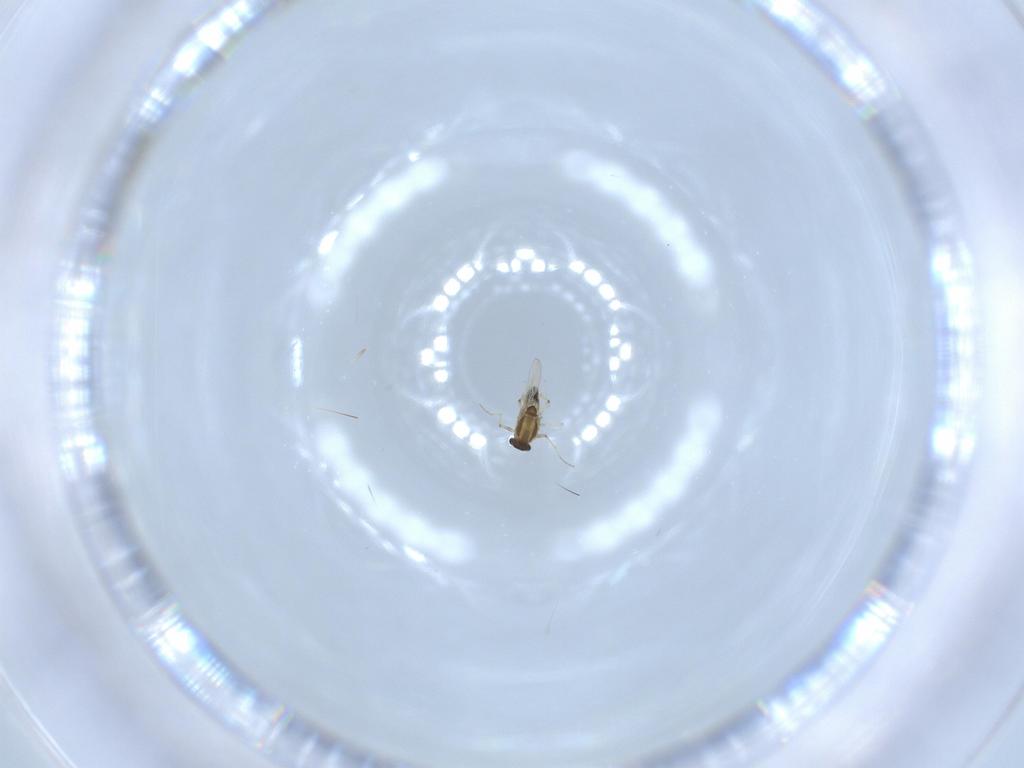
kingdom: Animalia
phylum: Arthropoda
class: Insecta
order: Diptera
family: Chironomidae
